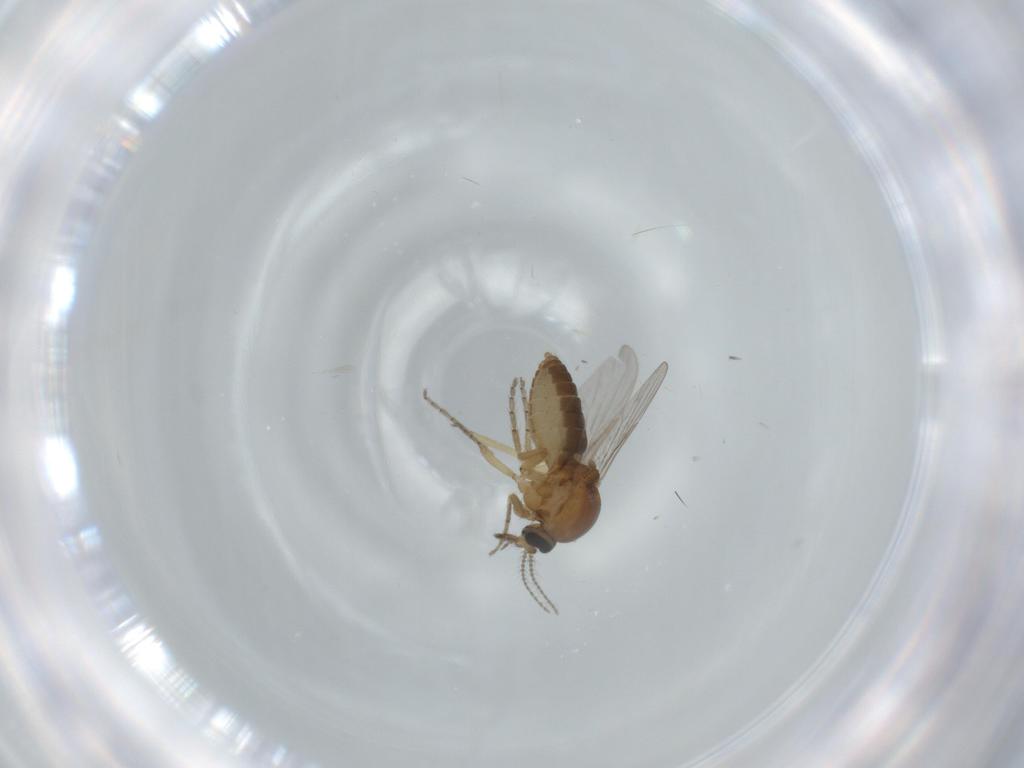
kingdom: Animalia
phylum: Arthropoda
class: Insecta
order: Diptera
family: Ceratopogonidae
